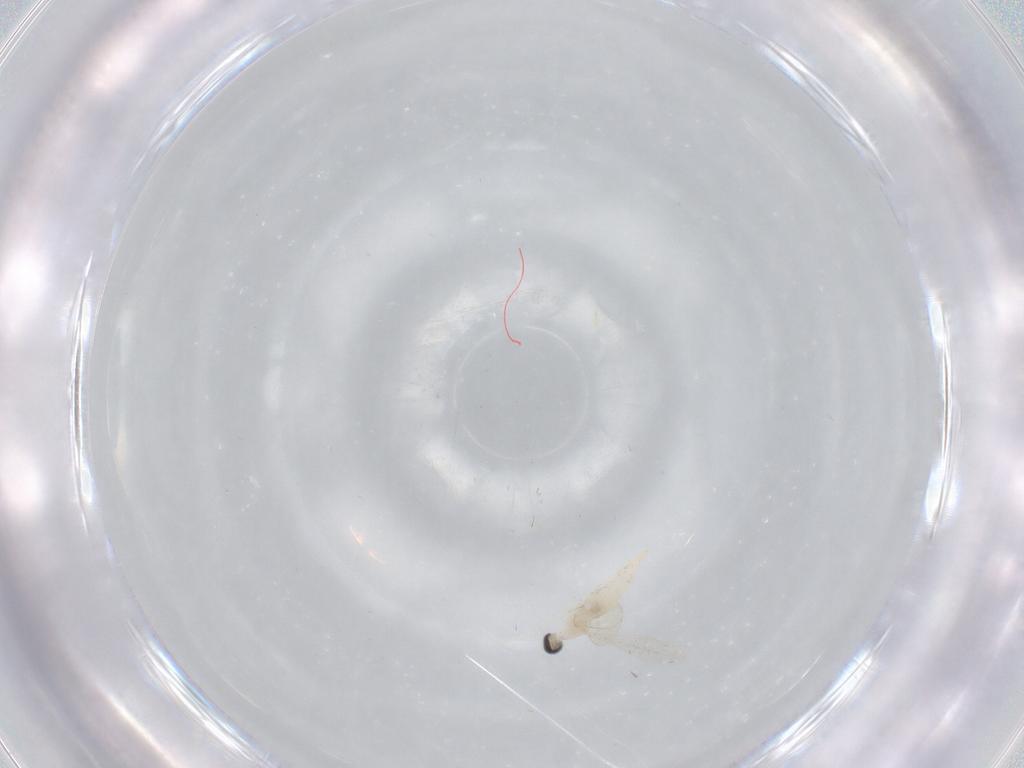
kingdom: Animalia
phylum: Arthropoda
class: Insecta
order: Diptera
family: Cecidomyiidae
